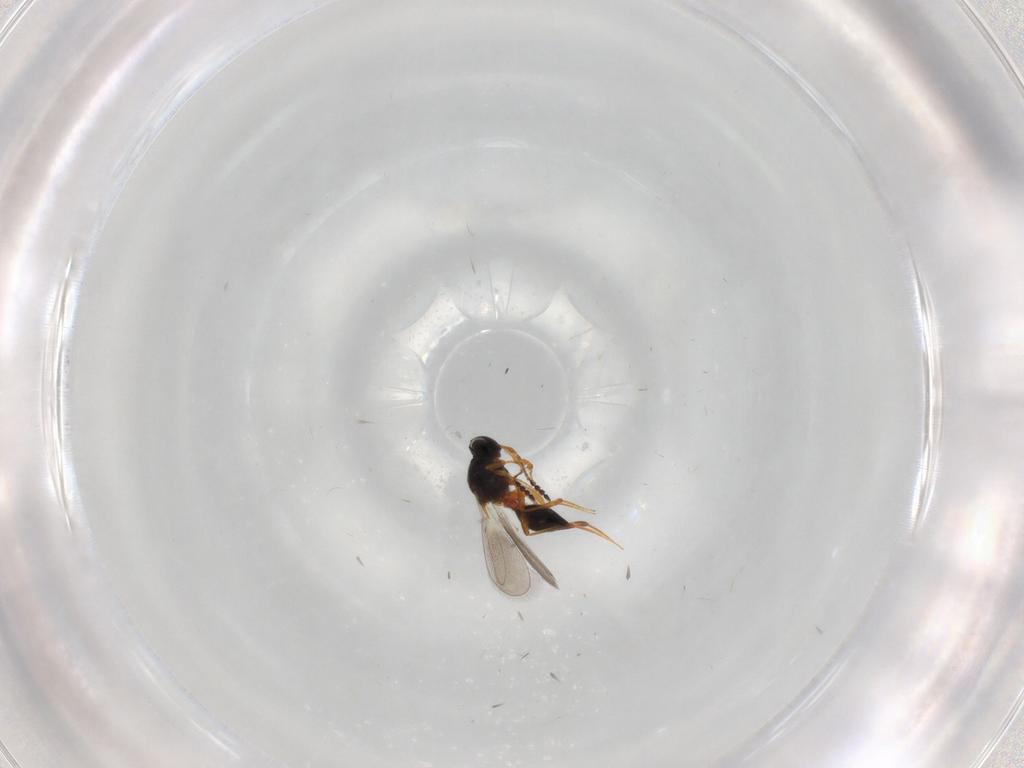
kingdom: Animalia
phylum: Arthropoda
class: Insecta
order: Hymenoptera
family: Platygastridae
